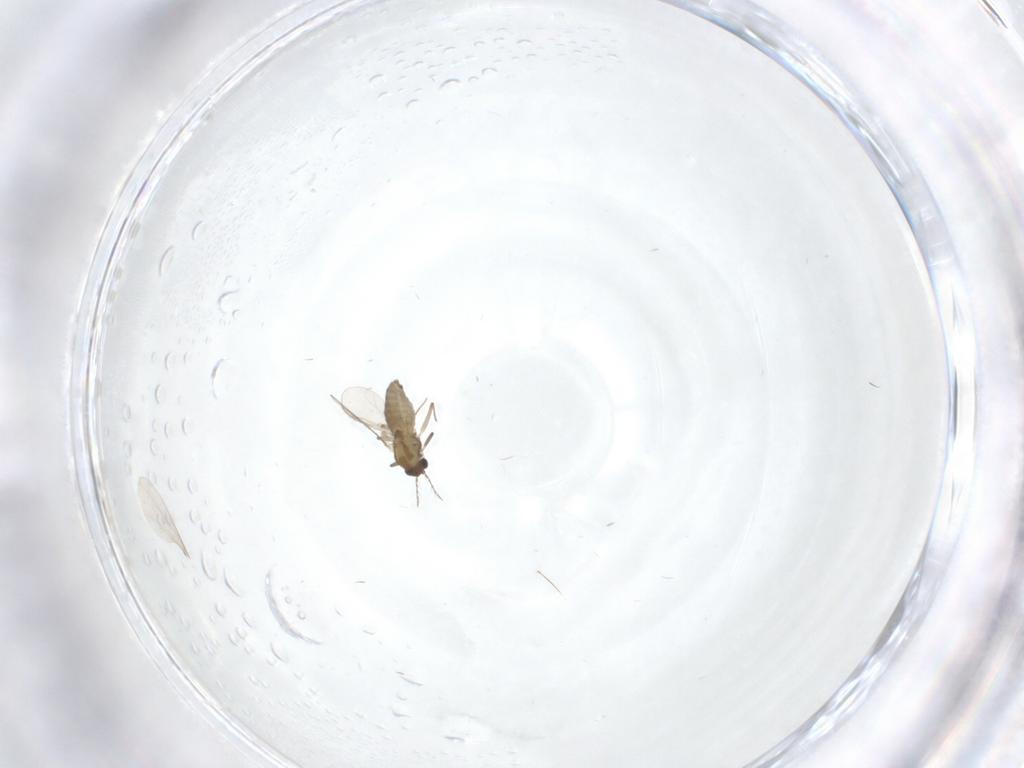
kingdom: Animalia
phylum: Arthropoda
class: Insecta
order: Diptera
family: Chironomidae
